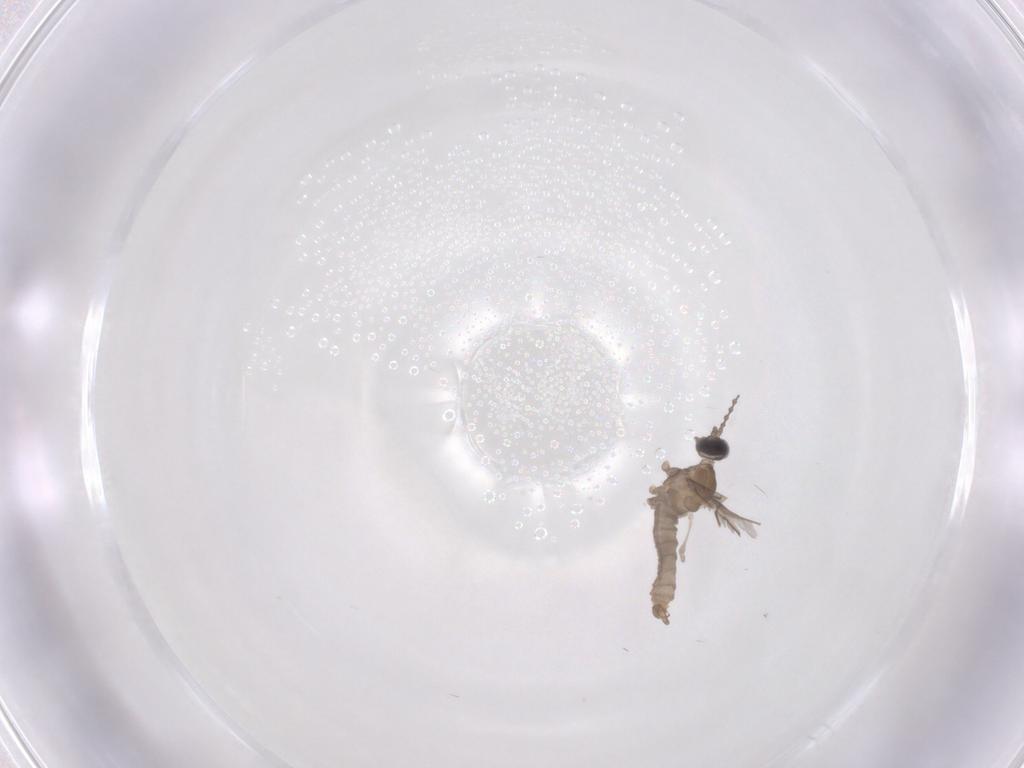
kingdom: Animalia
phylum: Arthropoda
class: Insecta
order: Diptera
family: Cecidomyiidae
